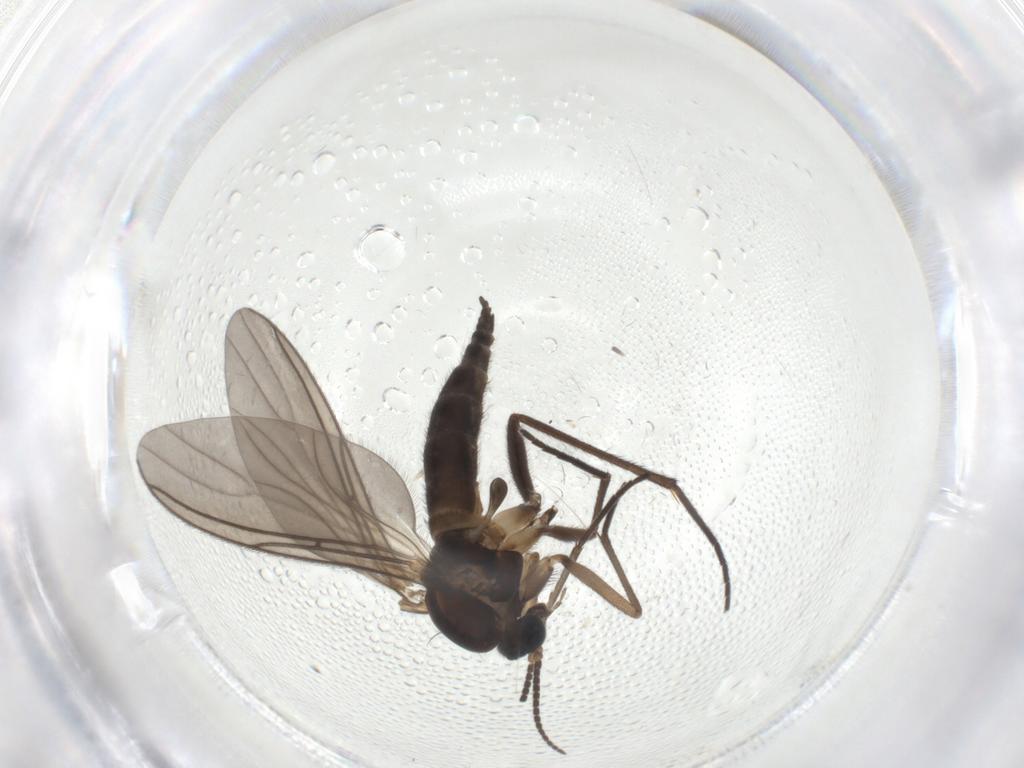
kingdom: Animalia
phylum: Arthropoda
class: Insecta
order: Diptera
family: Sciaridae
